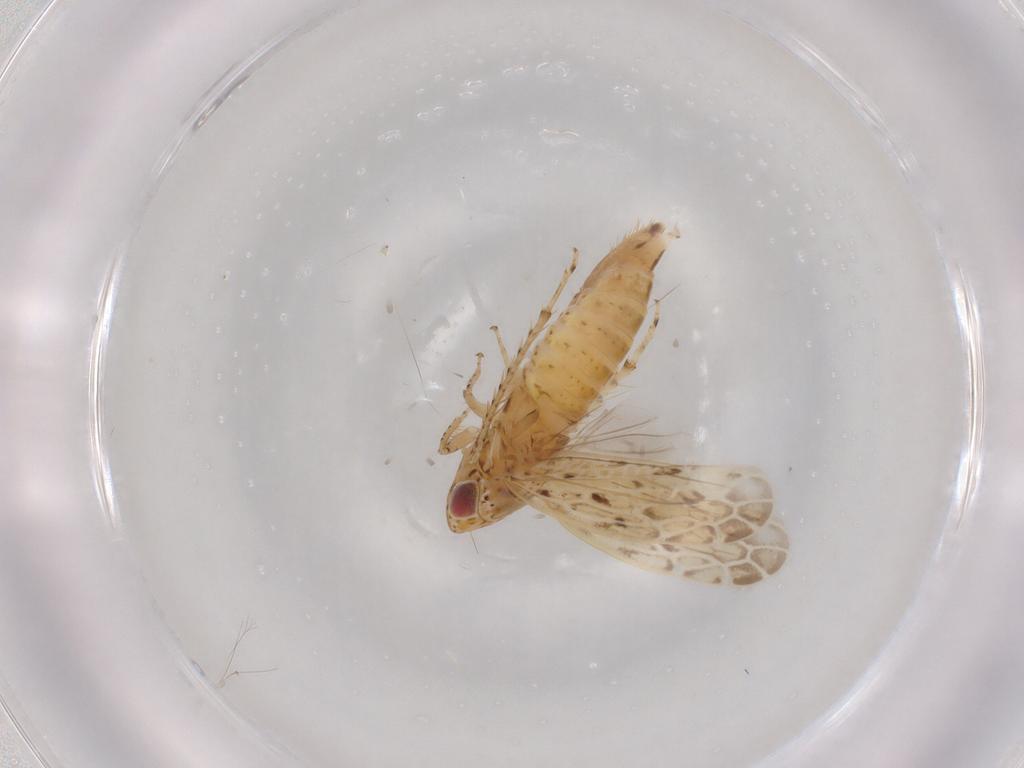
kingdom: Animalia
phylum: Arthropoda
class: Insecta
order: Hemiptera
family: Cicadellidae
